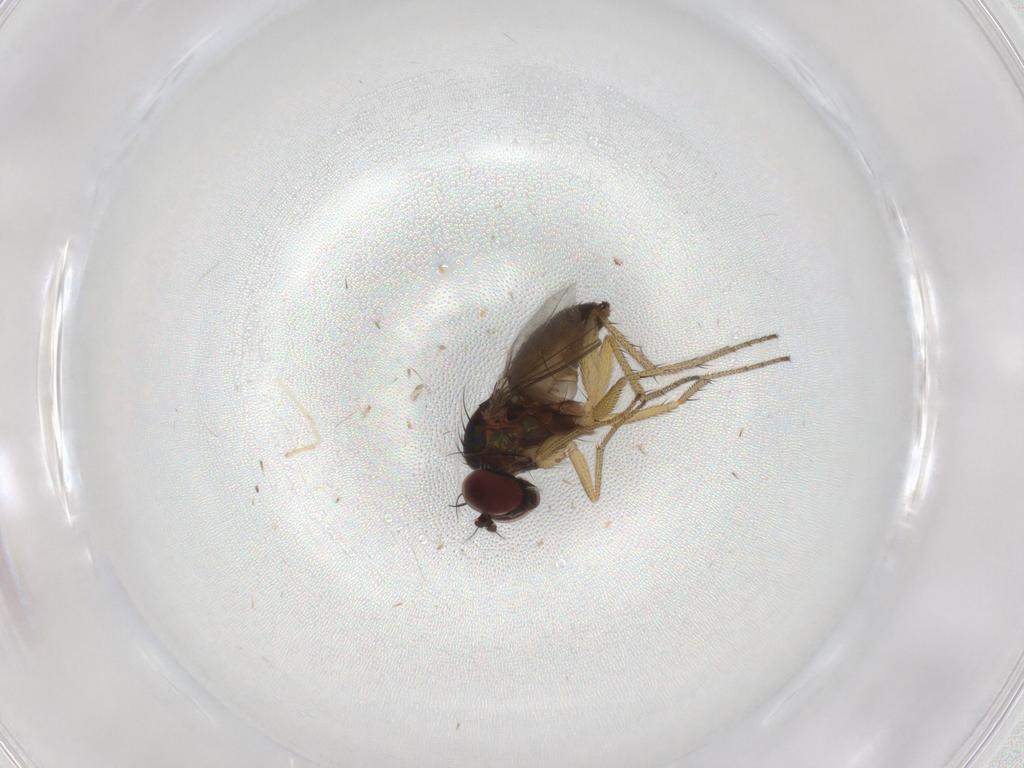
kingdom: Animalia
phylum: Arthropoda
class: Insecta
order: Diptera
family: Dolichopodidae
